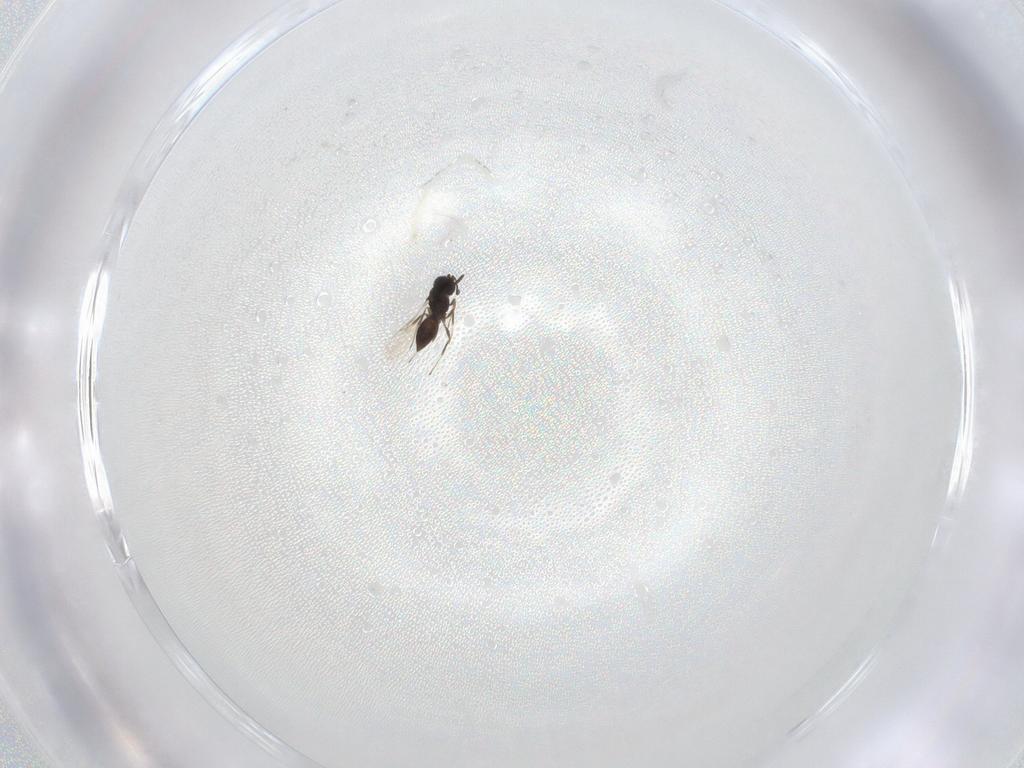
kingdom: Animalia
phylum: Arthropoda
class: Insecta
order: Hymenoptera
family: Scelionidae
